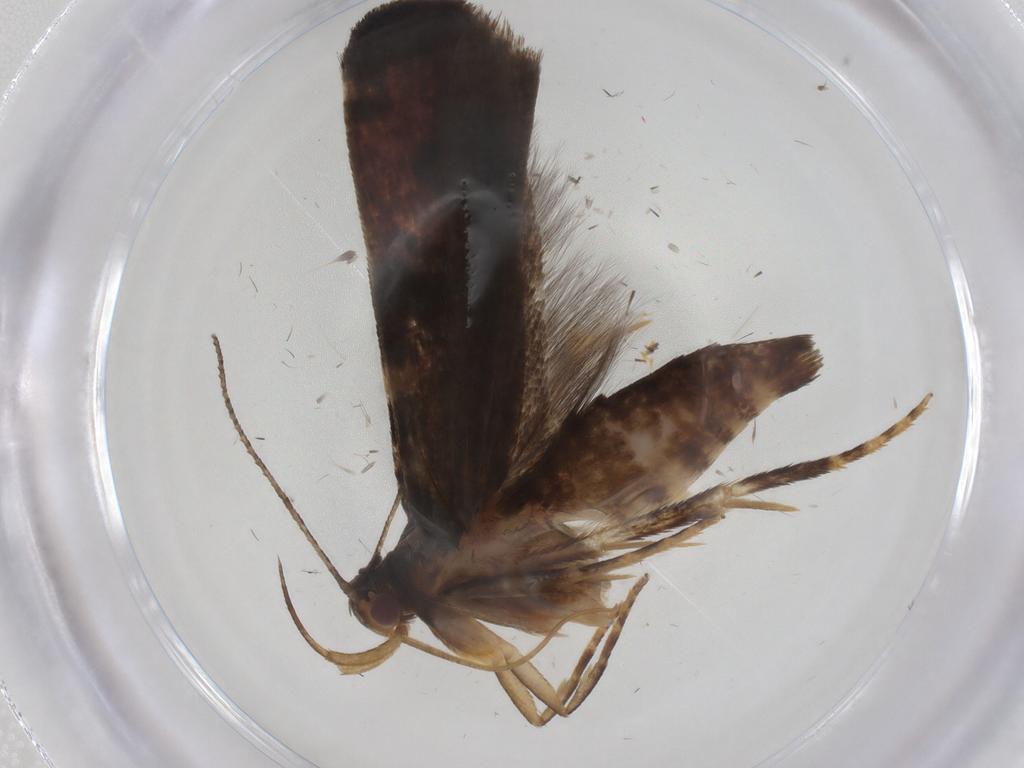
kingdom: Animalia
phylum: Arthropoda
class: Insecta
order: Lepidoptera
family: Gelechiidae
